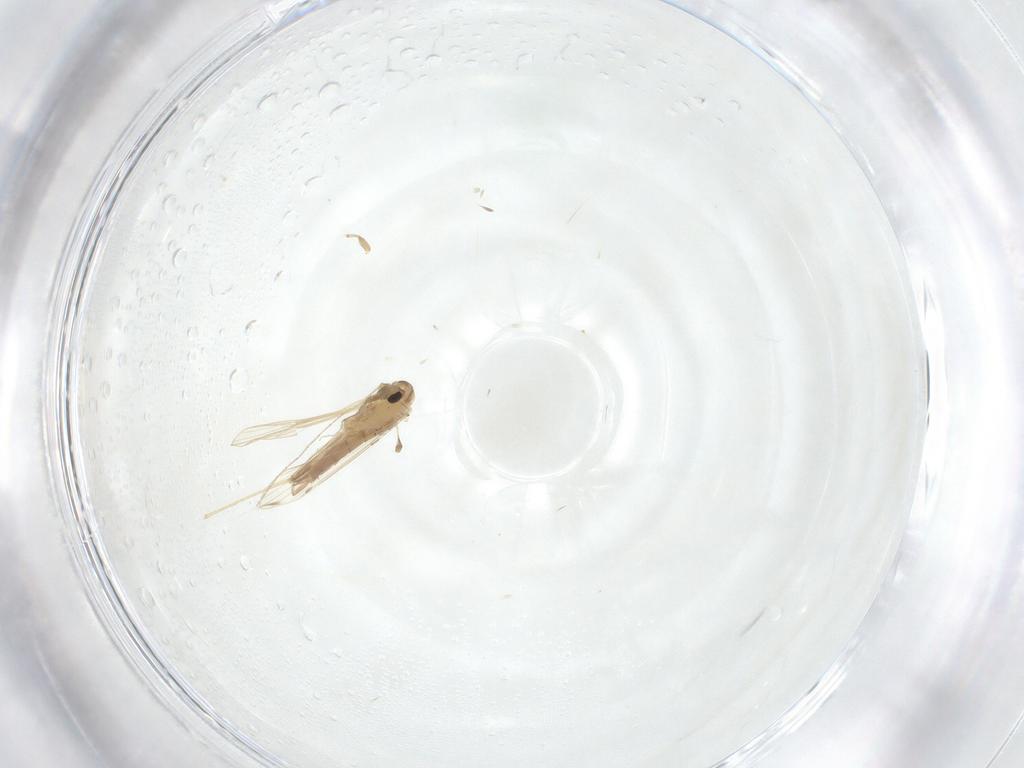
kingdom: Animalia
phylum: Arthropoda
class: Insecta
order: Diptera
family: Psychodidae
